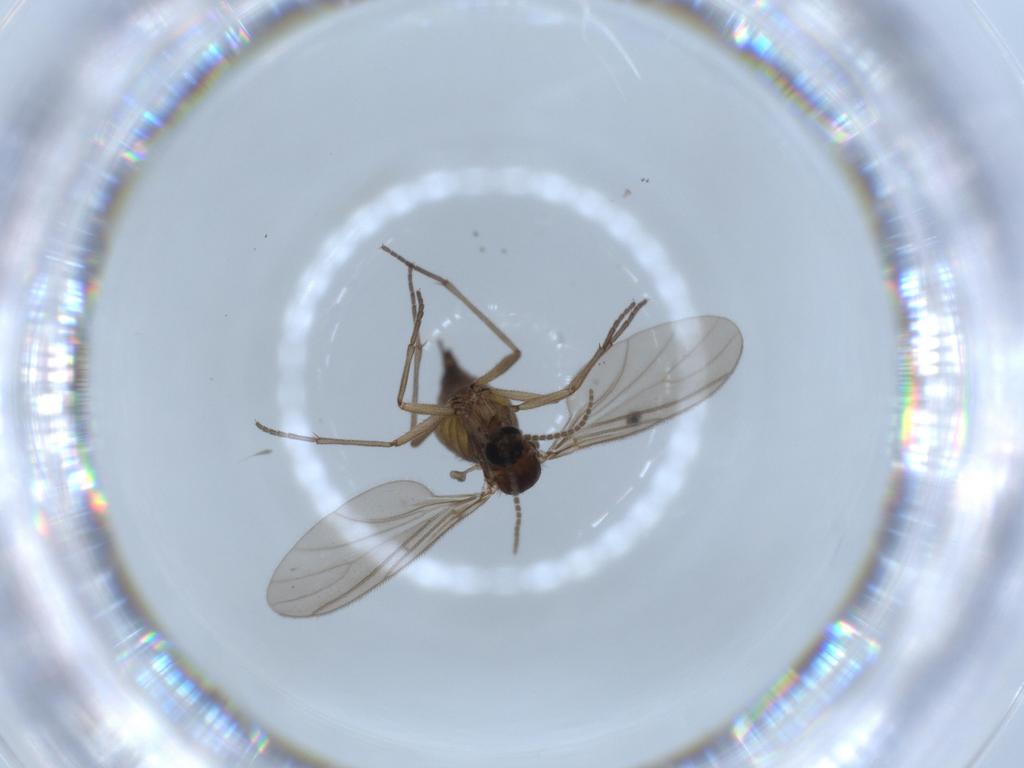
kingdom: Animalia
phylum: Arthropoda
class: Insecta
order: Diptera
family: Sciaridae
